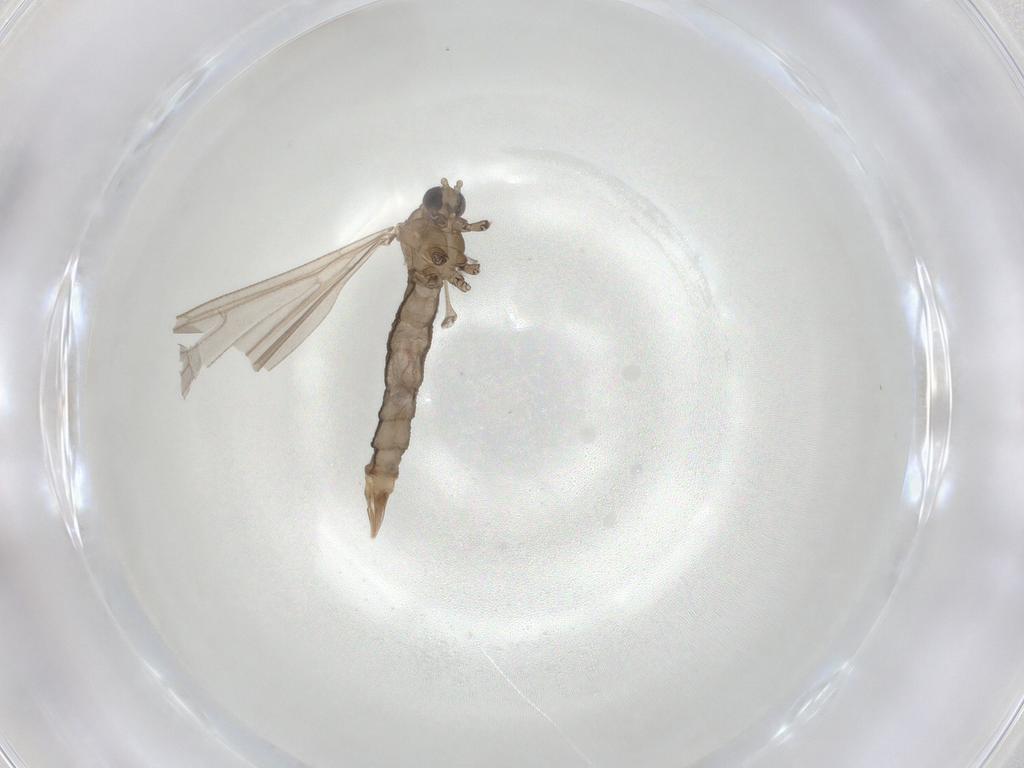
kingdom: Animalia
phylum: Arthropoda
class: Insecta
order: Diptera
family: Limoniidae
